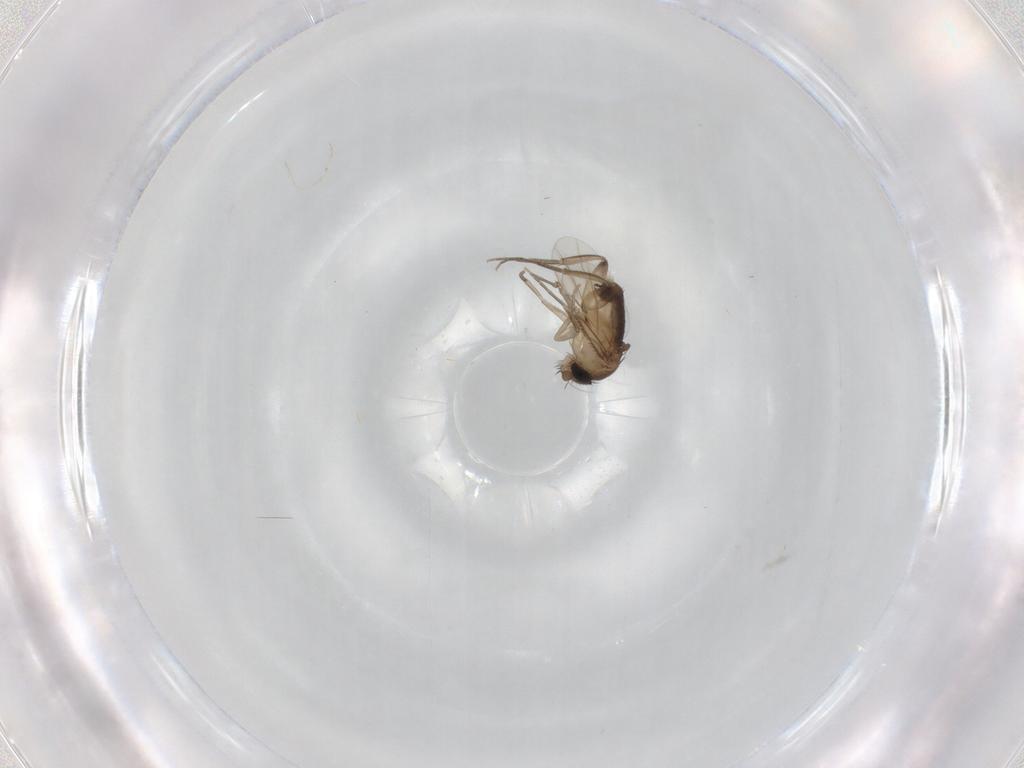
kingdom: Animalia
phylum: Arthropoda
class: Insecta
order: Diptera
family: Phoridae
